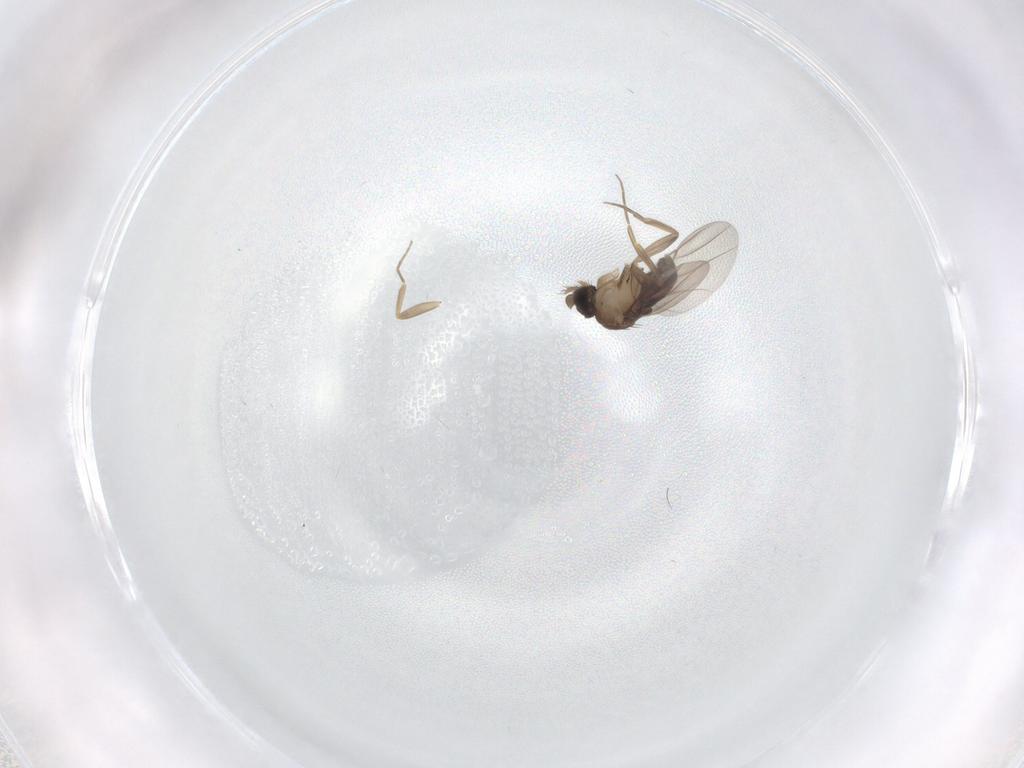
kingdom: Animalia
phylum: Arthropoda
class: Insecta
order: Diptera
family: Phoridae
